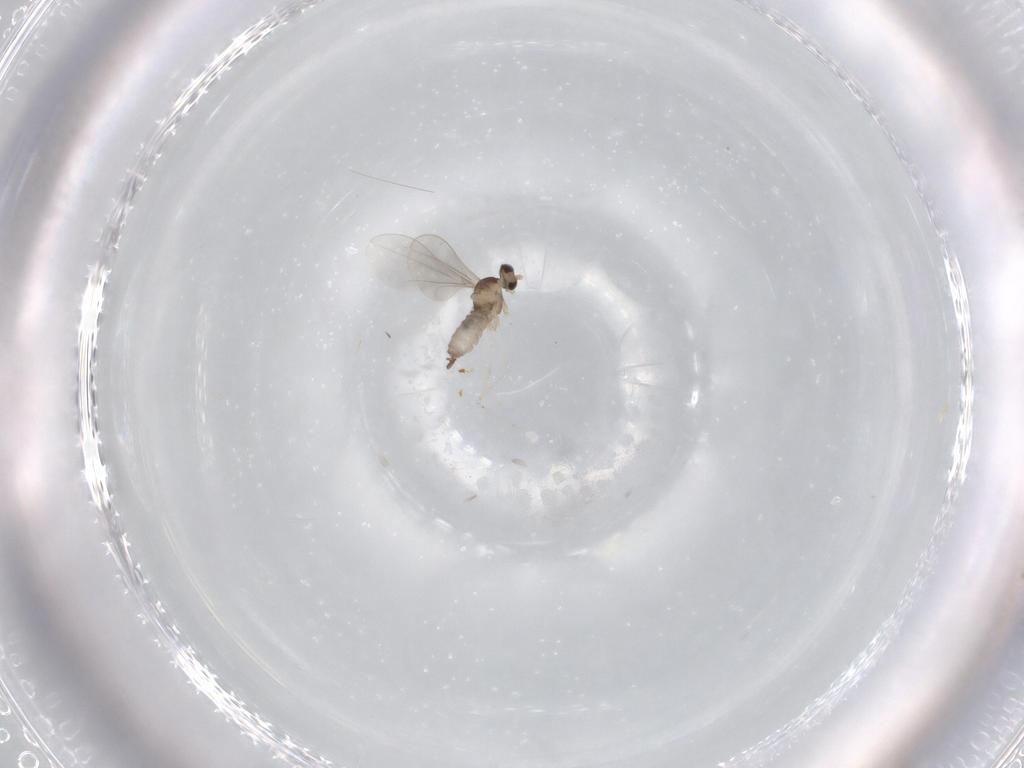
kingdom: Animalia
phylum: Arthropoda
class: Insecta
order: Diptera
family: Cecidomyiidae
